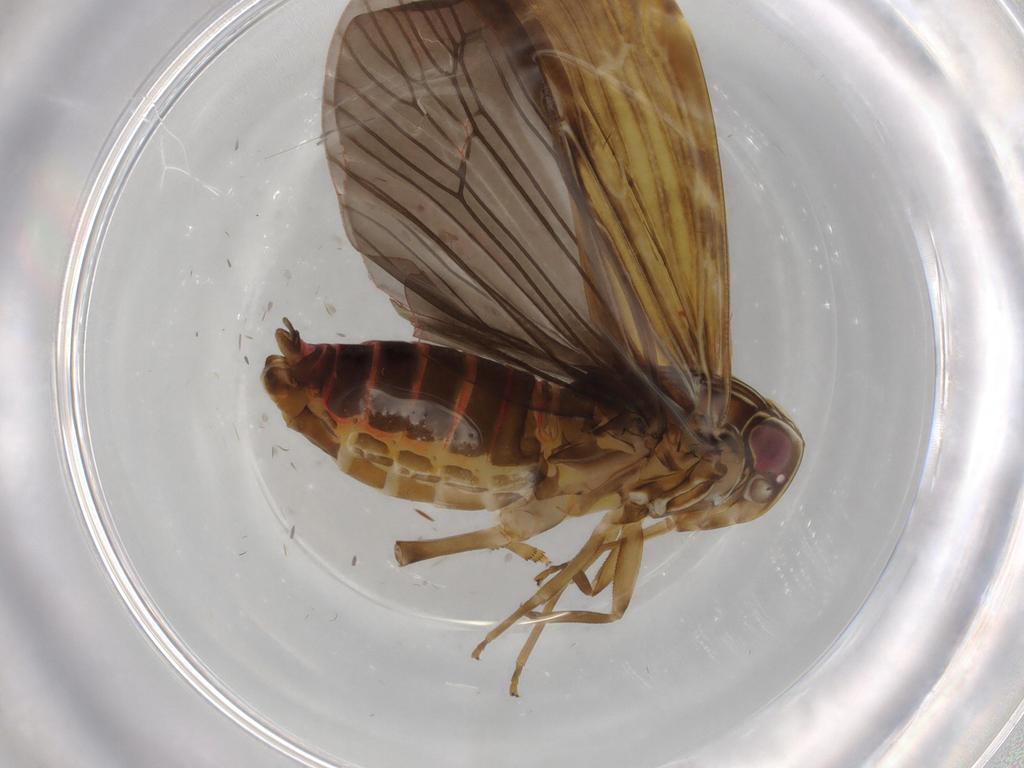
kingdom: Animalia
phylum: Arthropoda
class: Insecta
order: Hemiptera
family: Achilidae
